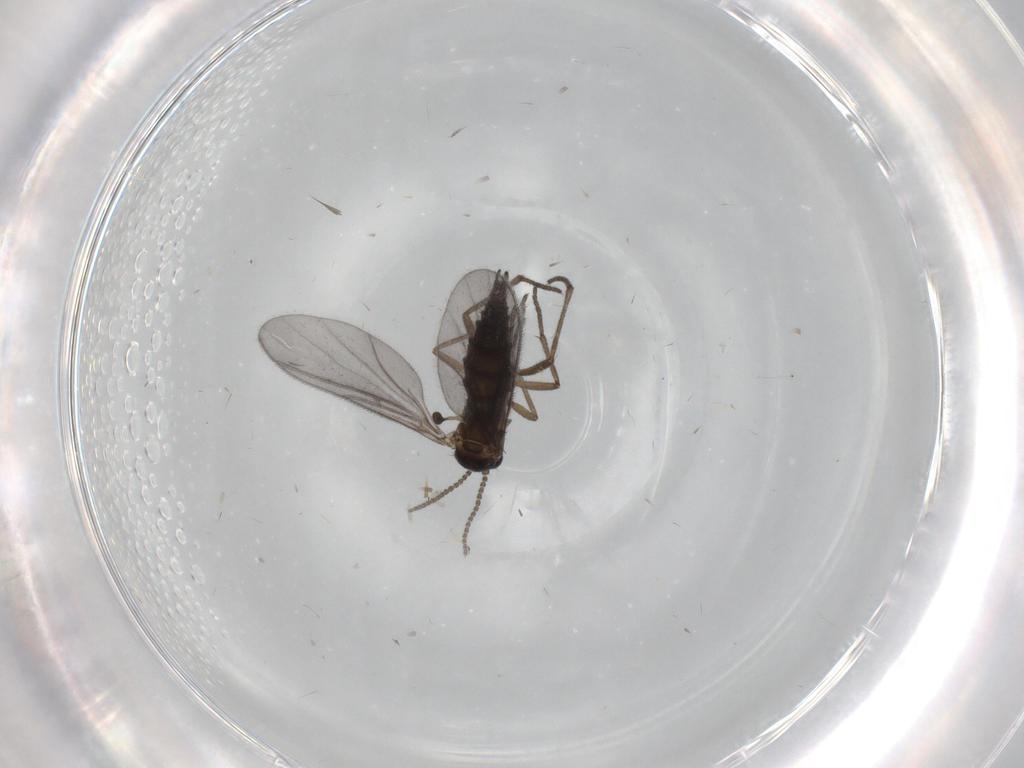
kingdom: Animalia
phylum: Arthropoda
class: Insecta
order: Diptera
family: Sciaridae
